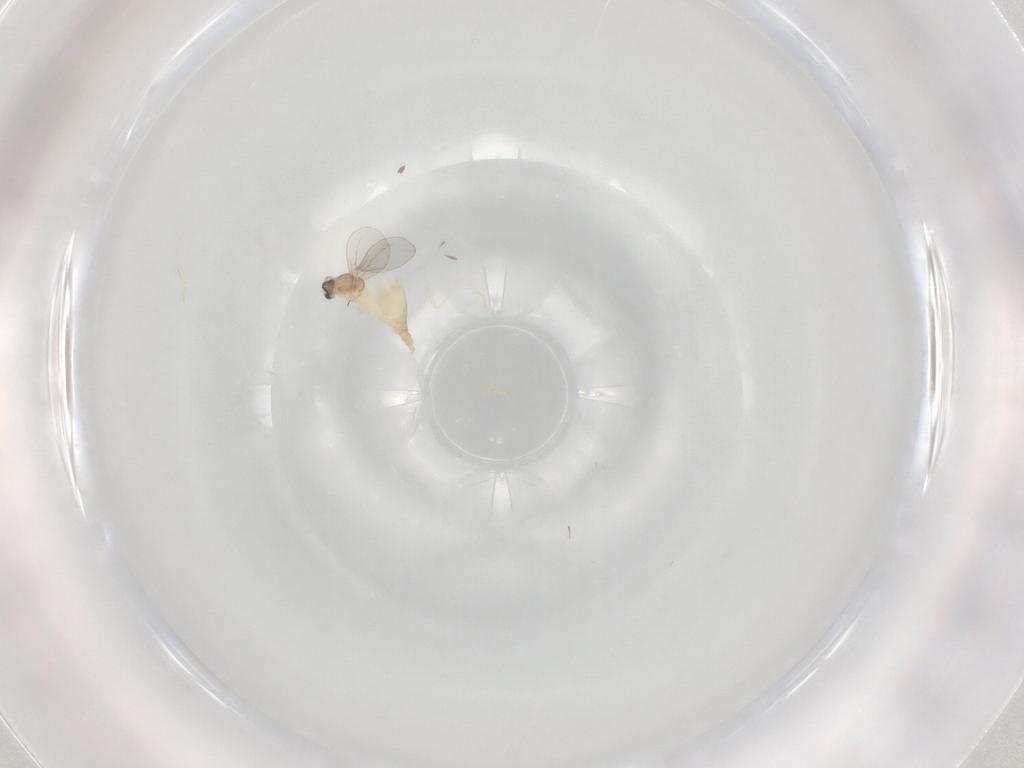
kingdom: Animalia
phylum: Arthropoda
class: Insecta
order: Diptera
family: Cecidomyiidae
